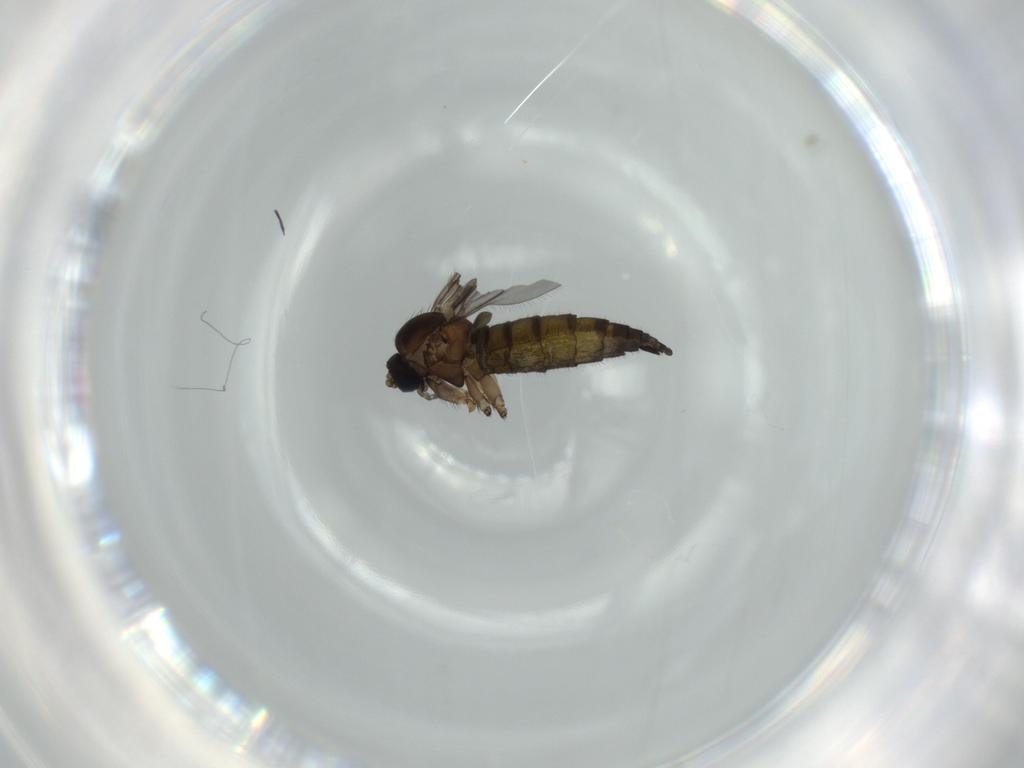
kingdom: Animalia
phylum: Arthropoda
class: Insecta
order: Diptera
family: Sciaridae
